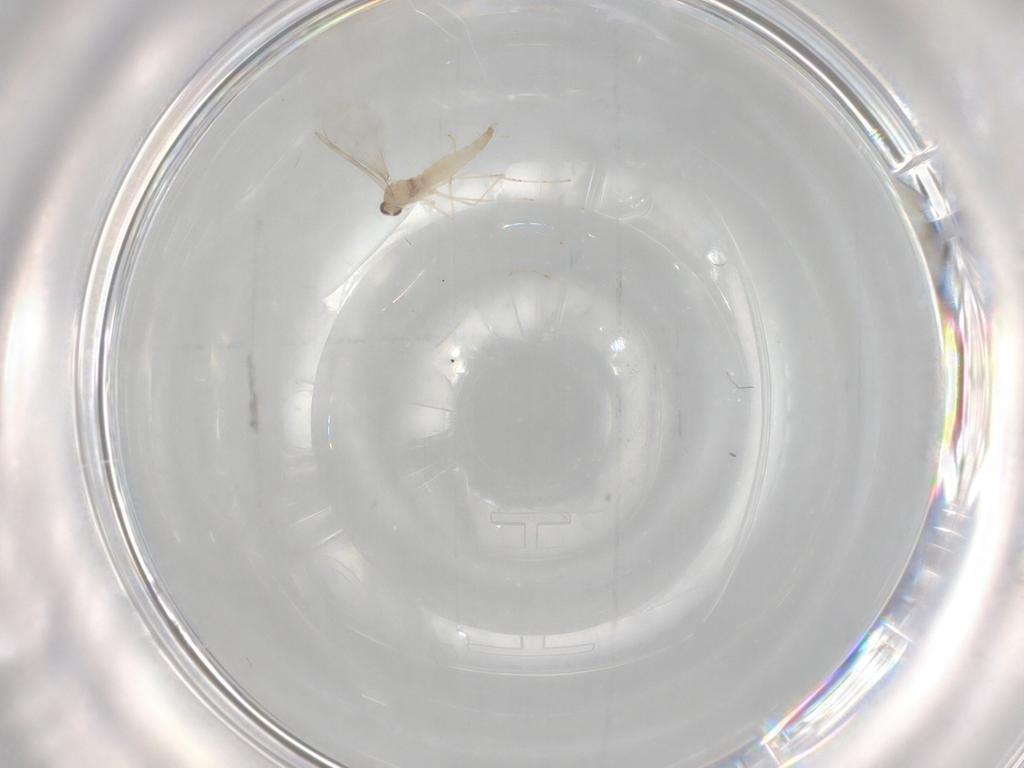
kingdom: Animalia
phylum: Arthropoda
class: Insecta
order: Diptera
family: Cecidomyiidae
